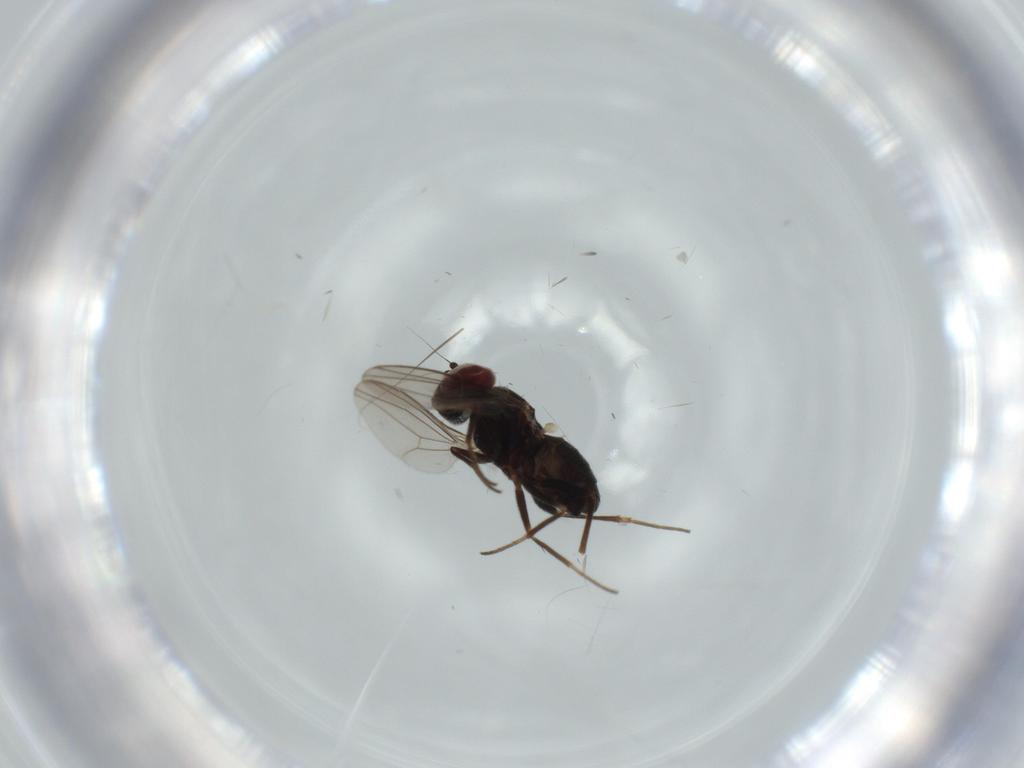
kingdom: Animalia
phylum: Arthropoda
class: Insecta
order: Diptera
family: Dolichopodidae
